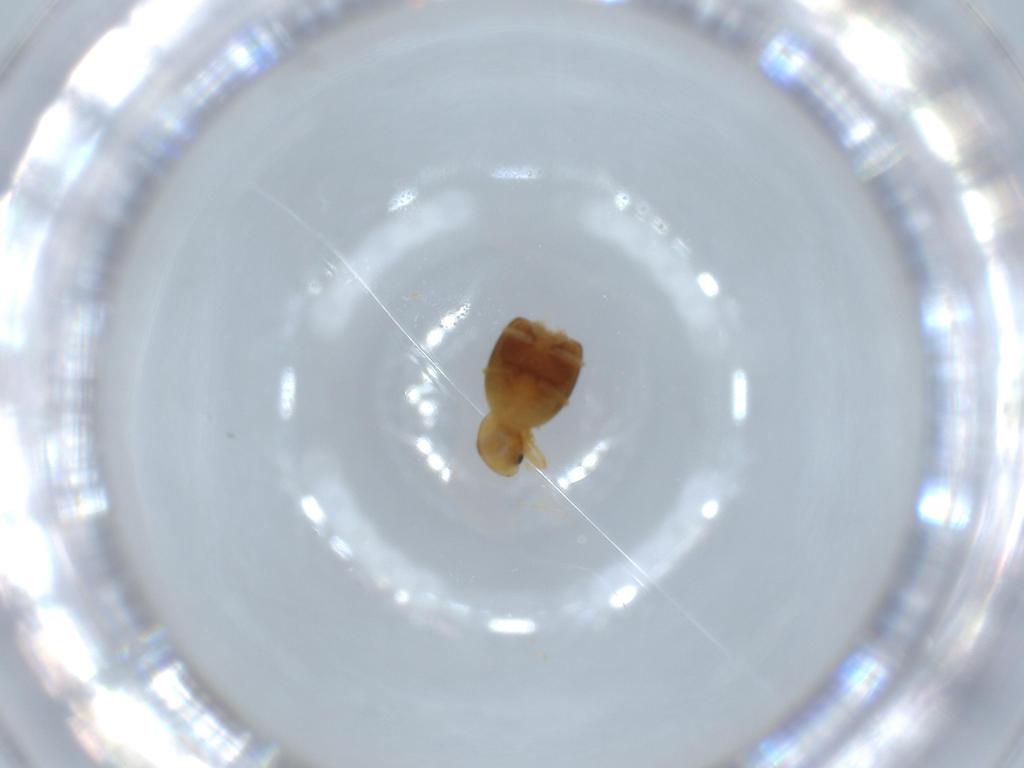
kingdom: Animalia
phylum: Arthropoda
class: Insecta
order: Coleoptera
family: Coccinellidae
